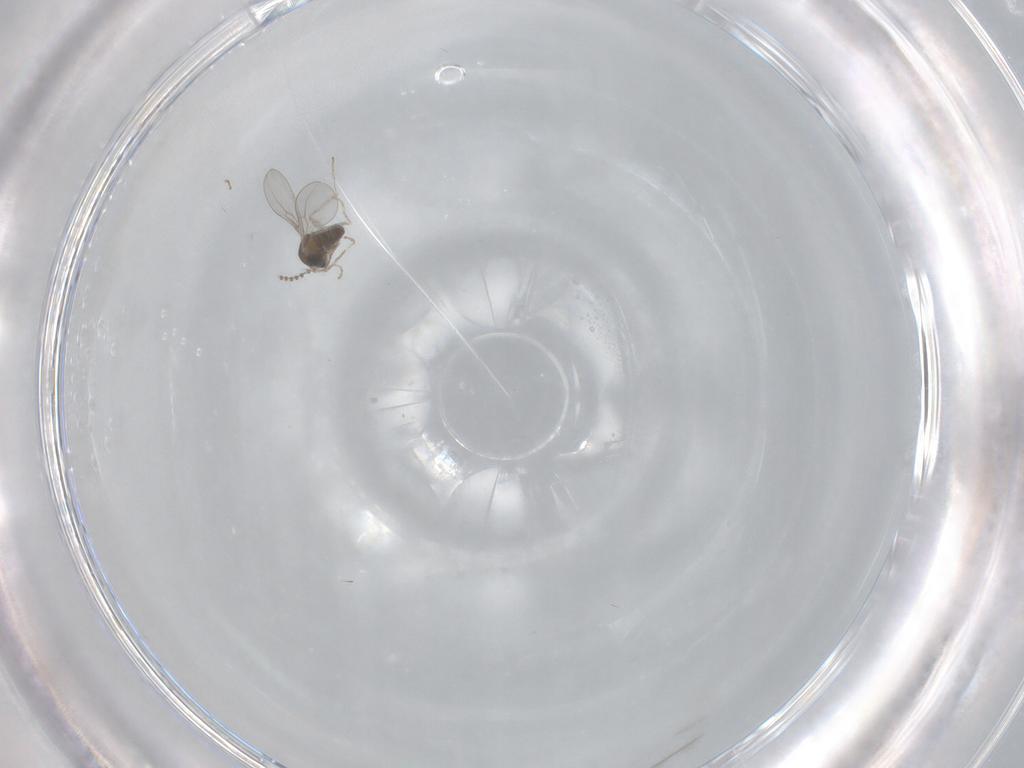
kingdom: Animalia
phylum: Arthropoda
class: Insecta
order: Diptera
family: Cecidomyiidae
